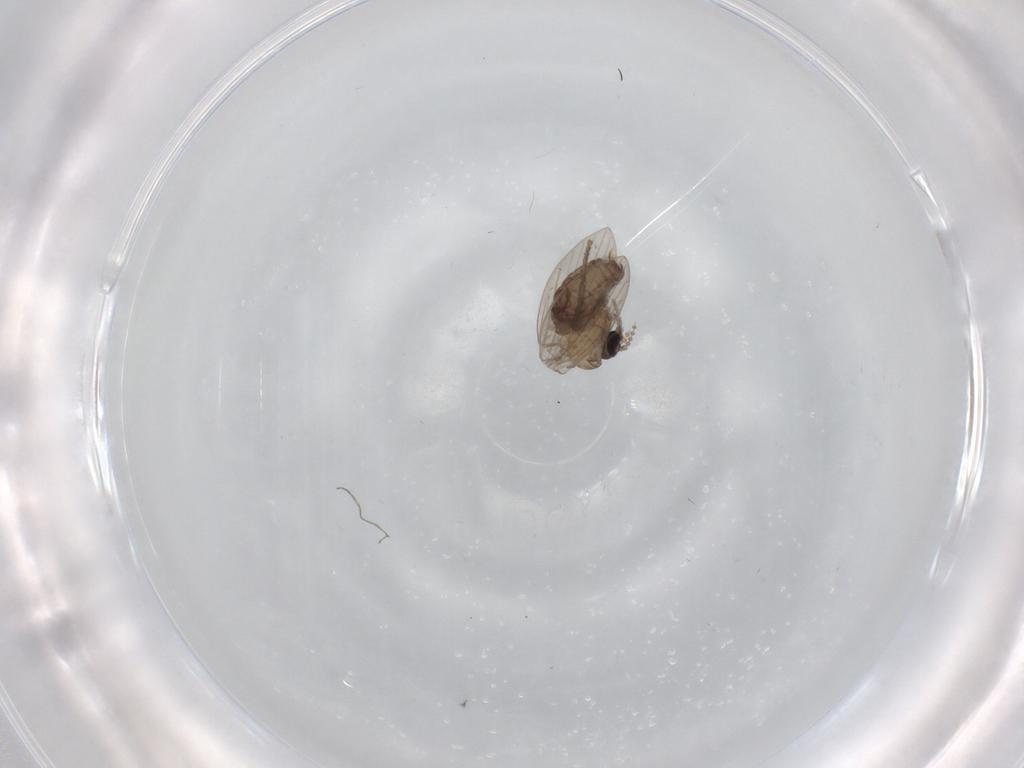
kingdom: Animalia
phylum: Arthropoda
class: Insecta
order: Diptera
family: Psychodidae
